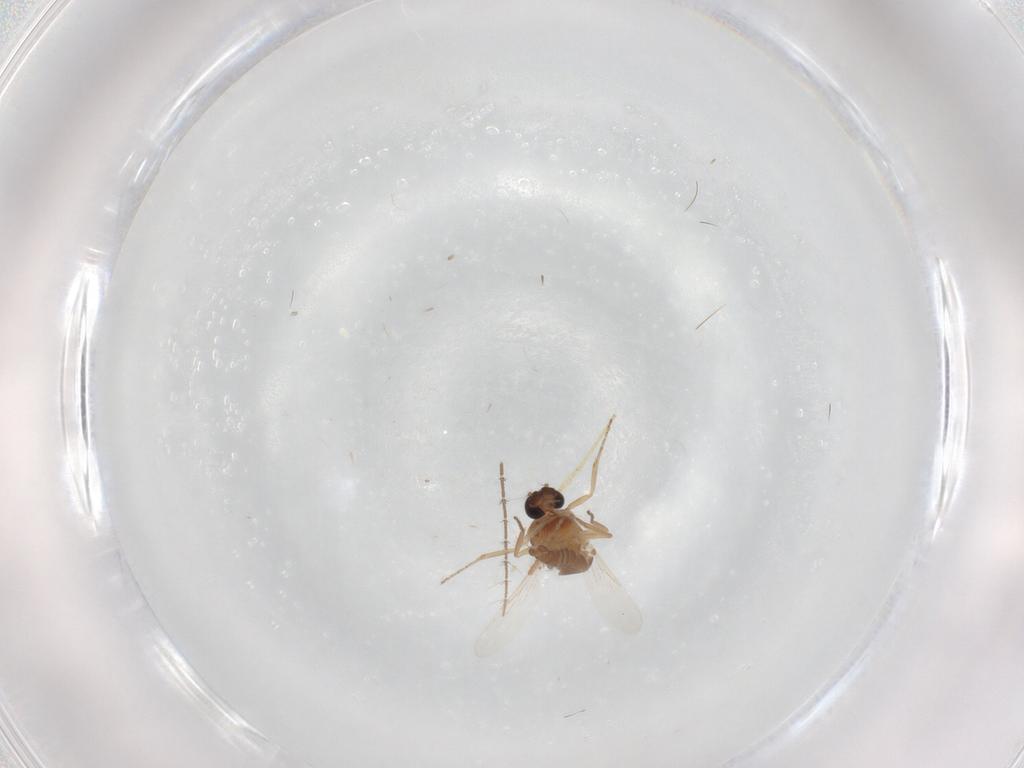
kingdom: Animalia
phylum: Arthropoda
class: Insecta
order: Diptera
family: Ceratopogonidae
